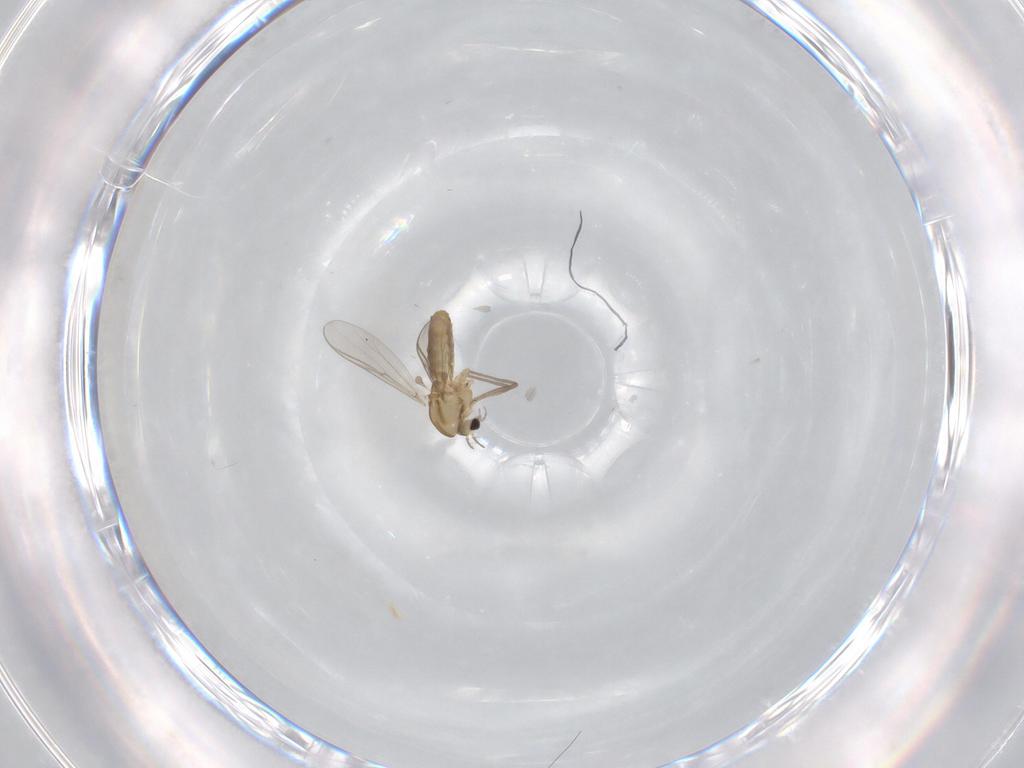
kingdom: Animalia
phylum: Arthropoda
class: Insecta
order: Diptera
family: Chironomidae
